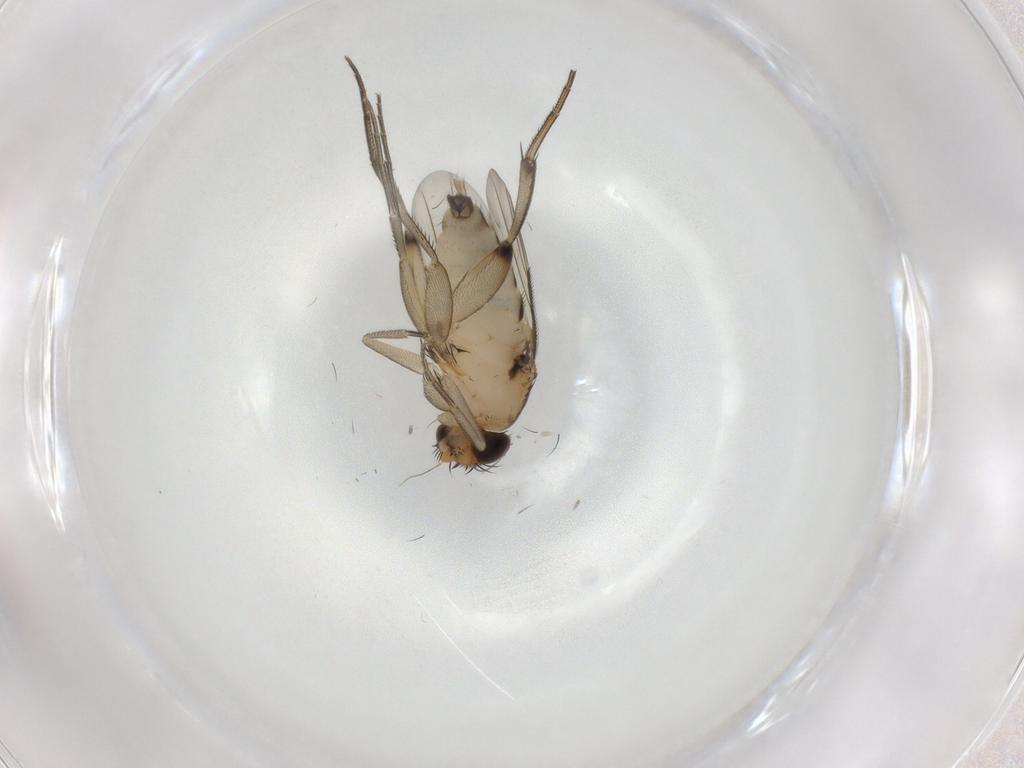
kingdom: Animalia
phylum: Arthropoda
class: Insecta
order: Diptera
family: Phoridae
